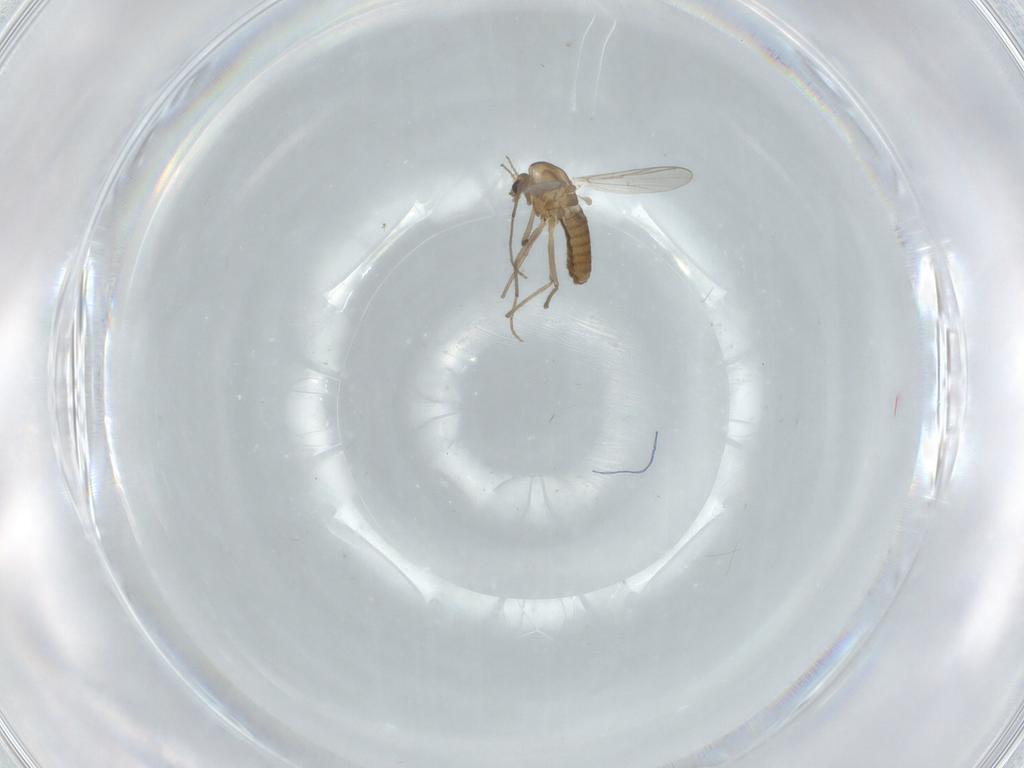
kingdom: Animalia
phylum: Arthropoda
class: Insecta
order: Diptera
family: Chironomidae
